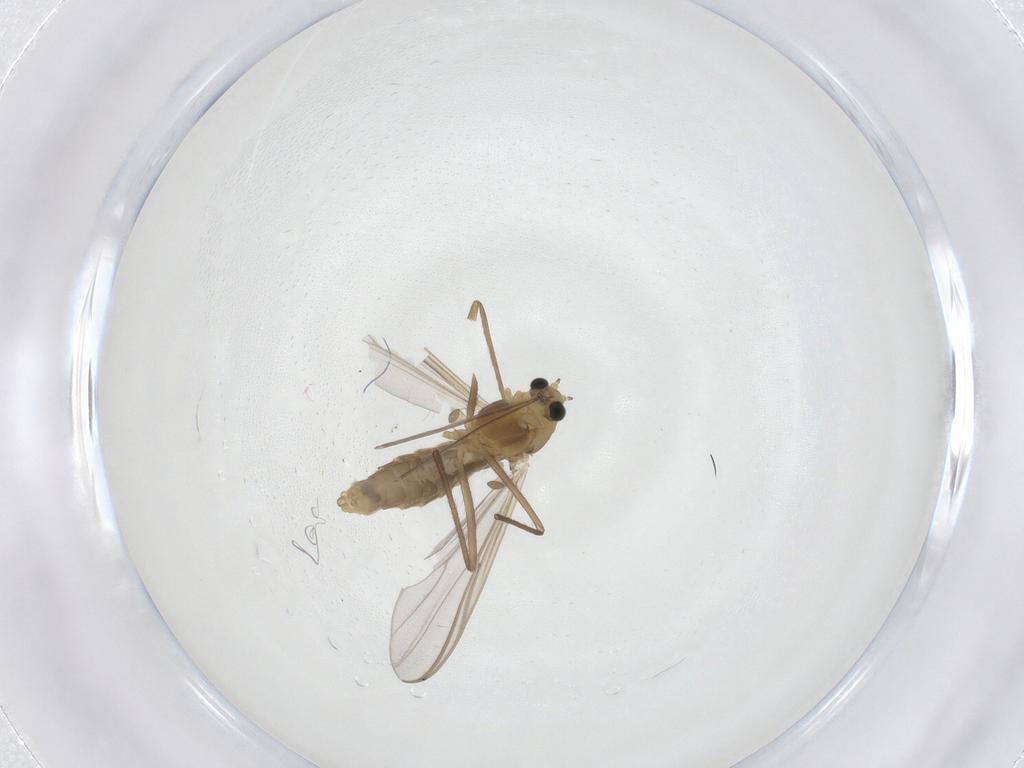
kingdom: Animalia
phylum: Arthropoda
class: Insecta
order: Diptera
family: Chironomidae
